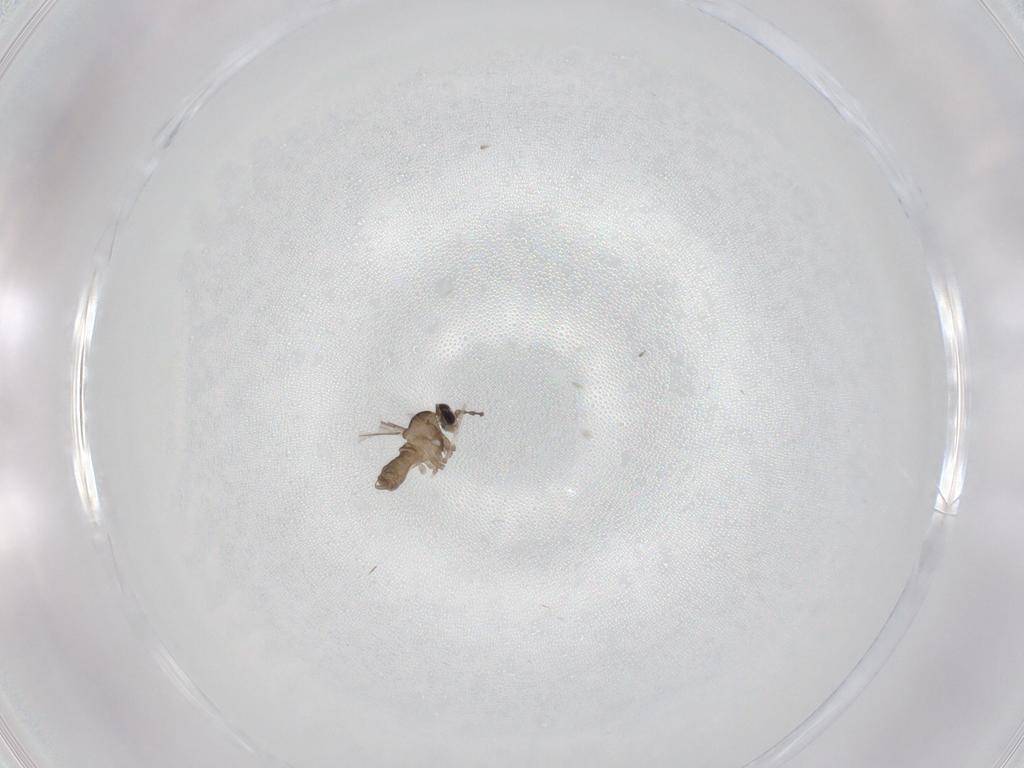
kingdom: Animalia
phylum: Arthropoda
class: Insecta
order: Diptera
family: Cecidomyiidae
